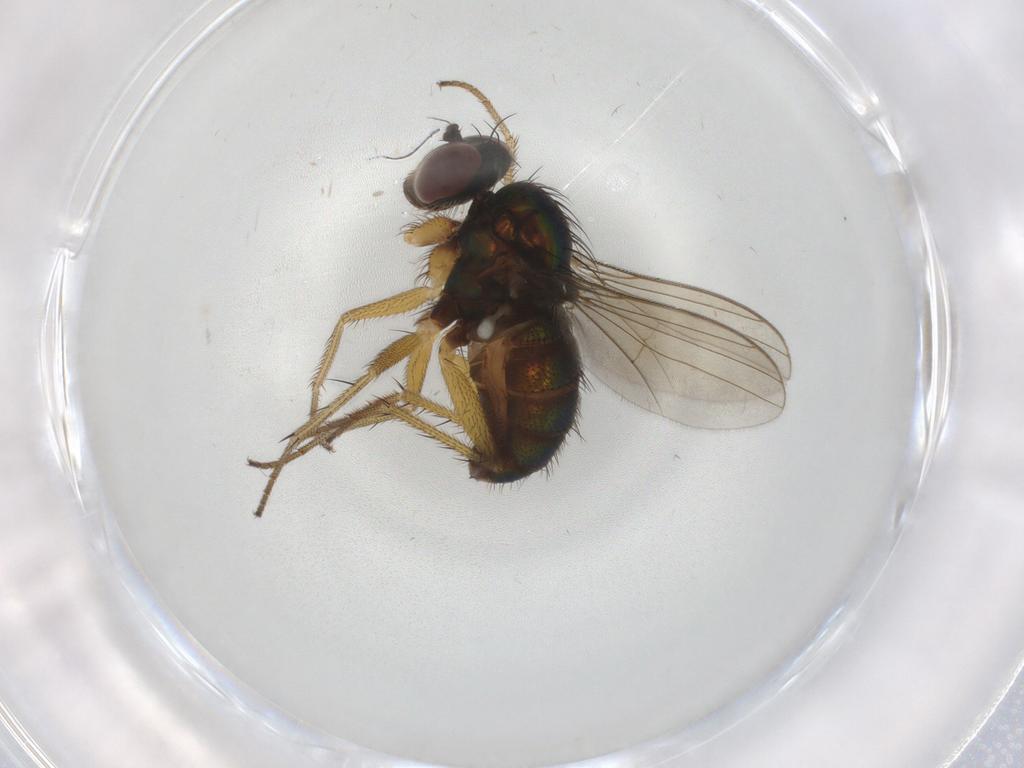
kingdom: Animalia
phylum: Arthropoda
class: Insecta
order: Diptera
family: Dolichopodidae
